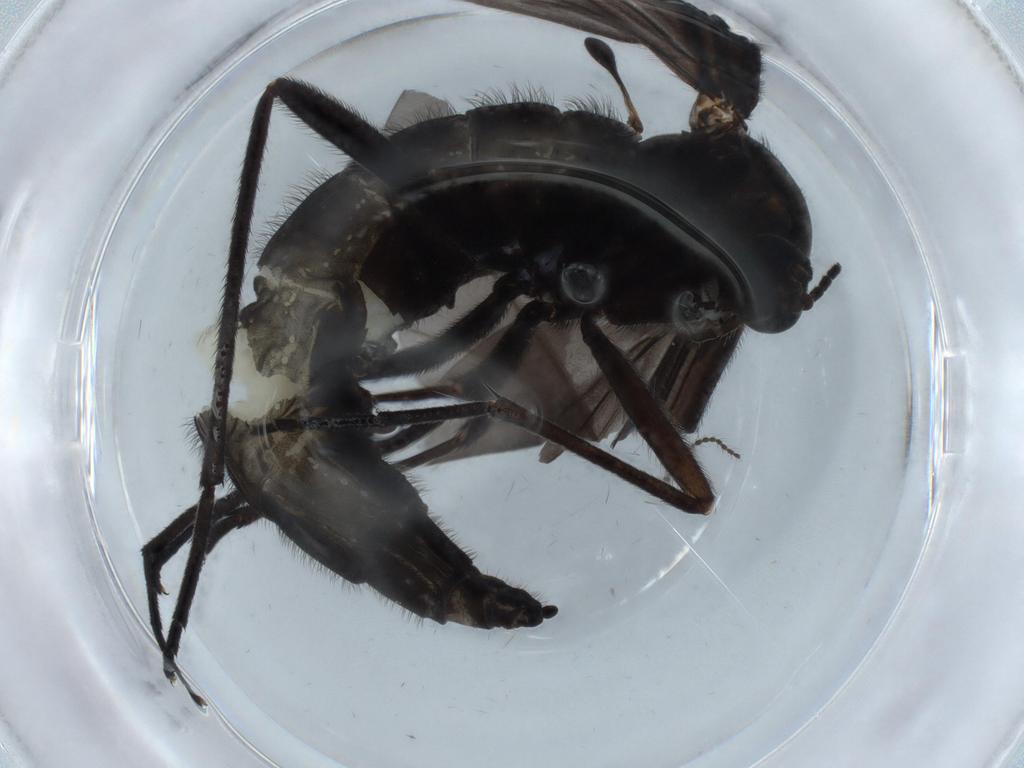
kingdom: Animalia
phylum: Arthropoda
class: Insecta
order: Diptera
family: Limoniidae
